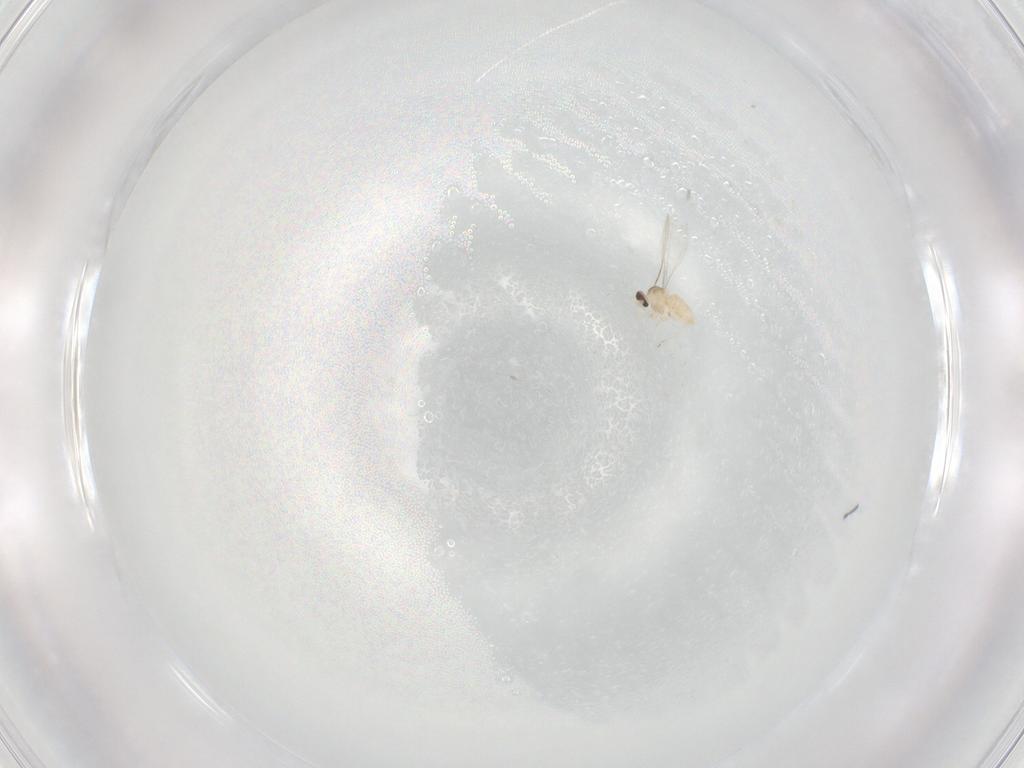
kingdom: Animalia
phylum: Arthropoda
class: Insecta
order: Diptera
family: Cecidomyiidae
